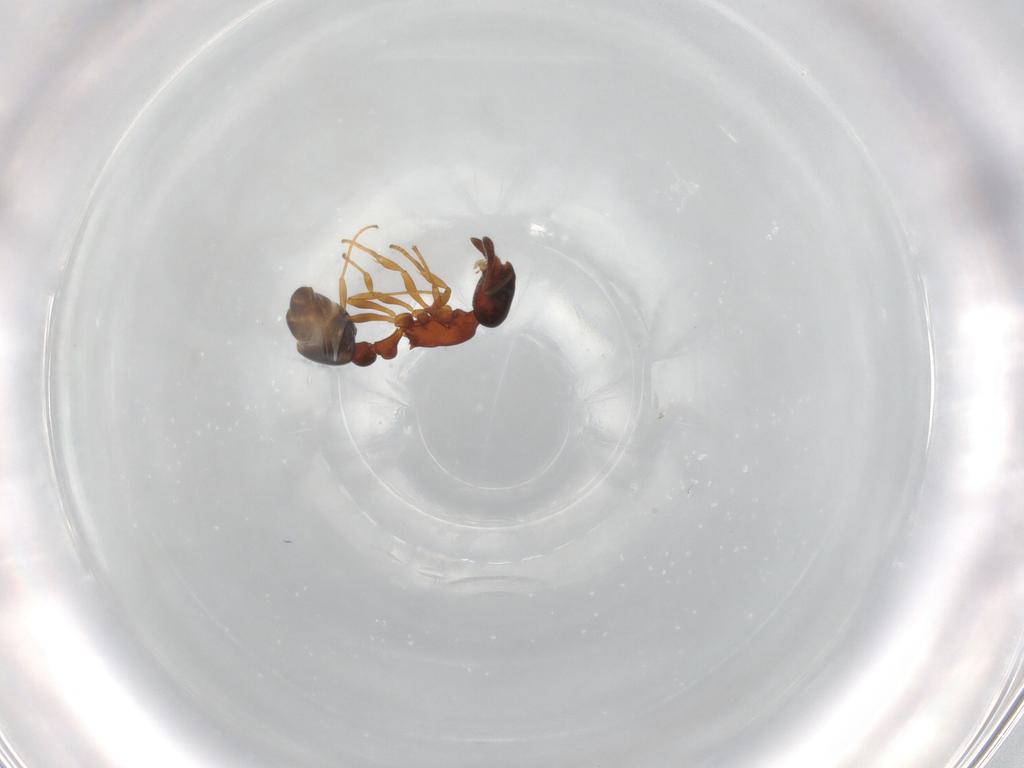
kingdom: Animalia
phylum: Arthropoda
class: Insecta
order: Hymenoptera
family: Formicidae
